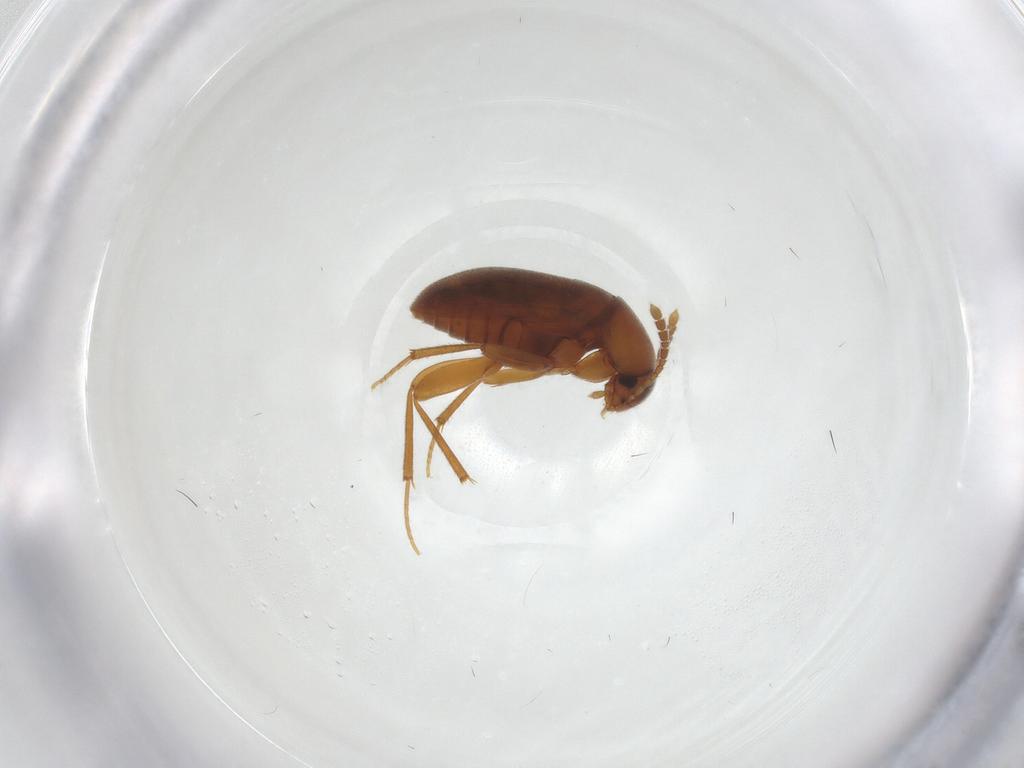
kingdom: Animalia
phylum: Arthropoda
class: Insecta
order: Coleoptera
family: Leiodidae
